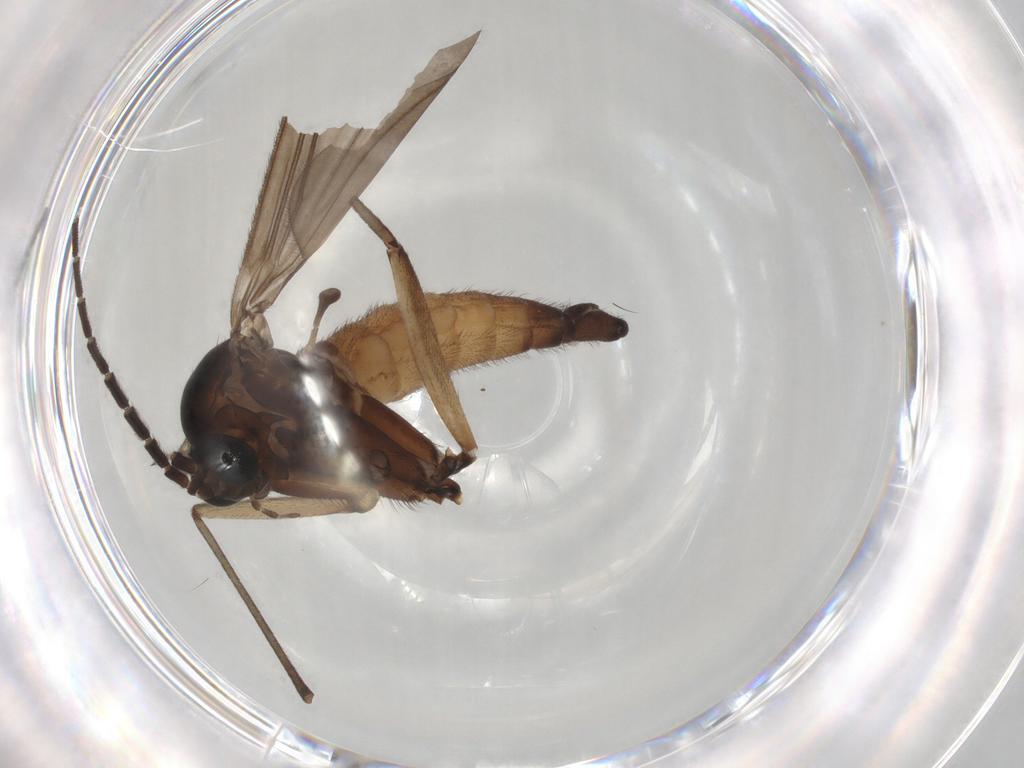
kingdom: Animalia
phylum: Arthropoda
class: Insecta
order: Diptera
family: Sciaridae
